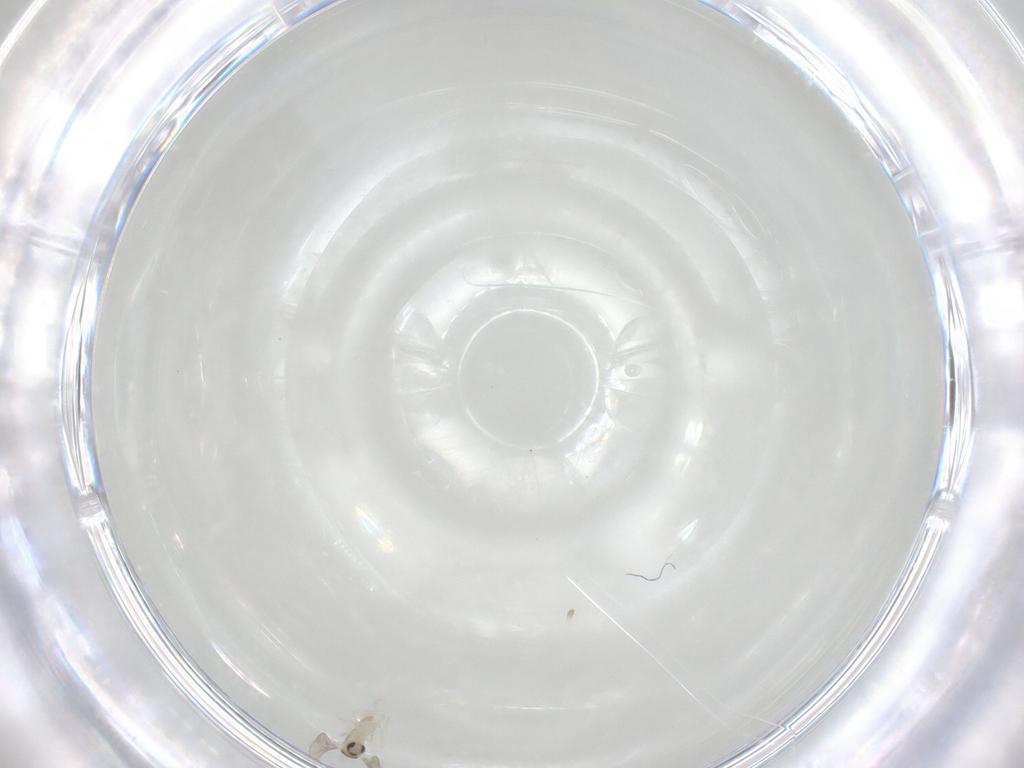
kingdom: Animalia
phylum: Arthropoda
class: Insecta
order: Diptera
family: Cecidomyiidae
